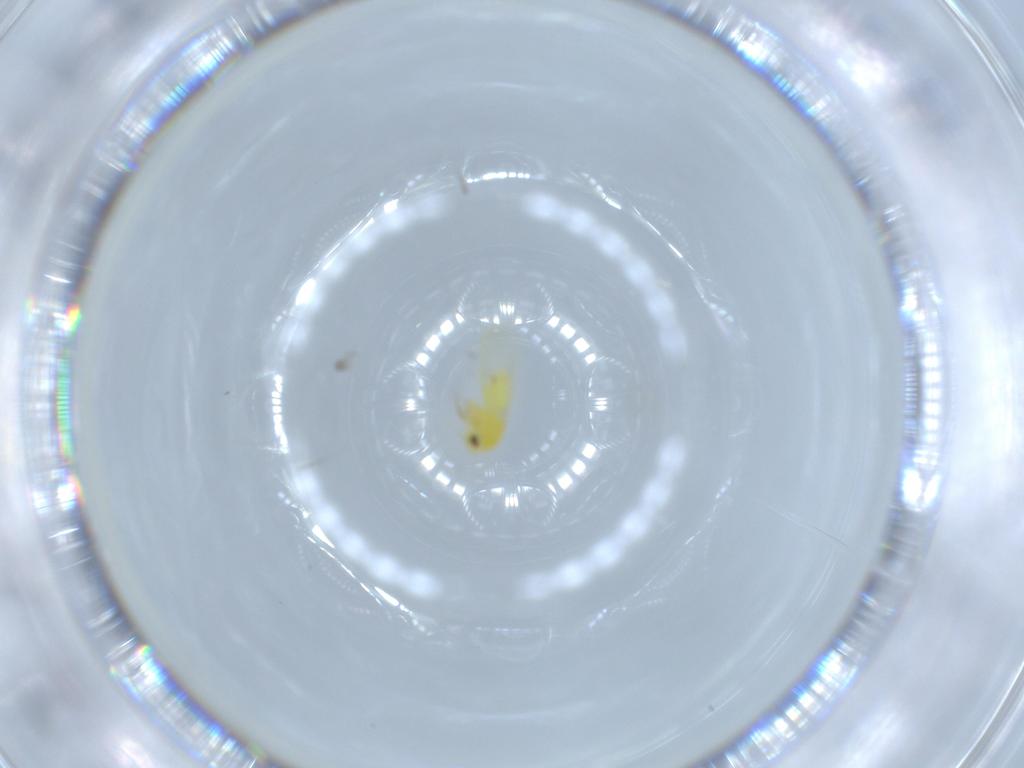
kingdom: Animalia
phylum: Arthropoda
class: Insecta
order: Hemiptera
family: Aleyrodidae
